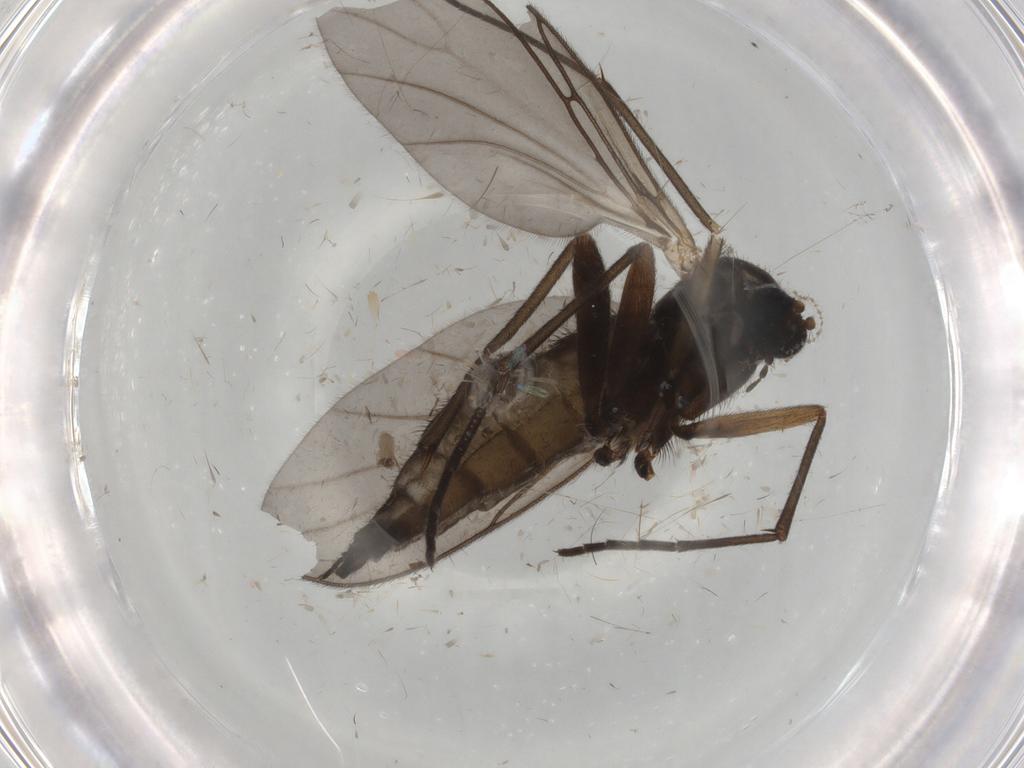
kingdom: Animalia
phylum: Arthropoda
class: Insecta
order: Diptera
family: Sciaridae
